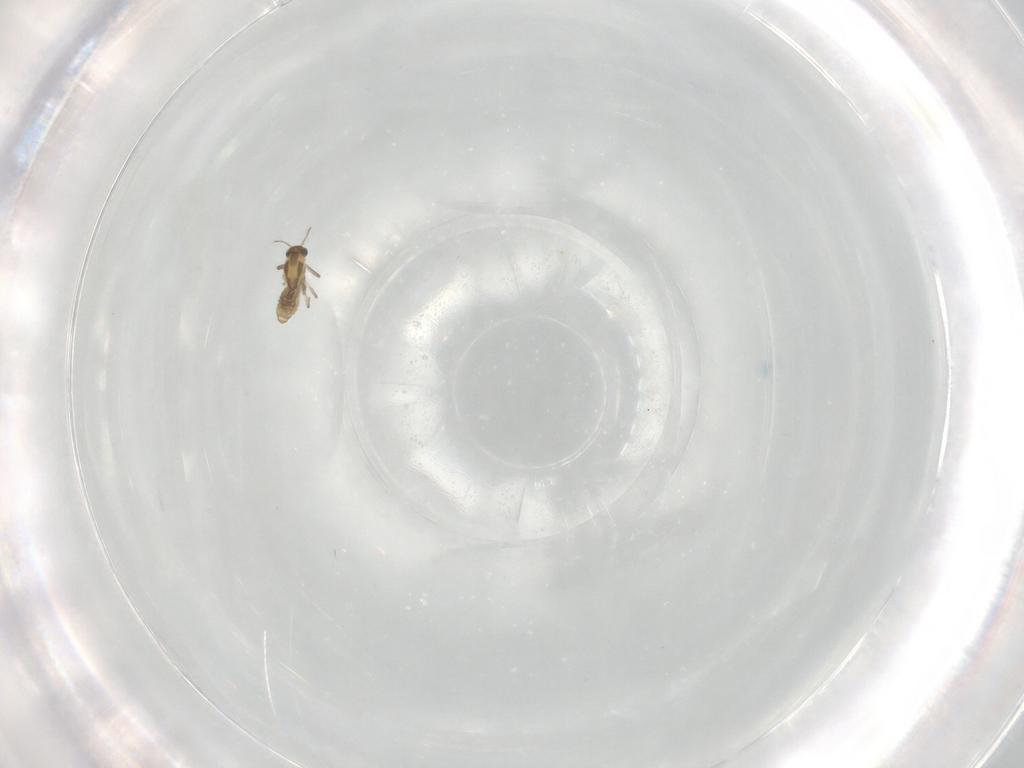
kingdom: Animalia
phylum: Arthropoda
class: Insecta
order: Diptera
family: Chironomidae
